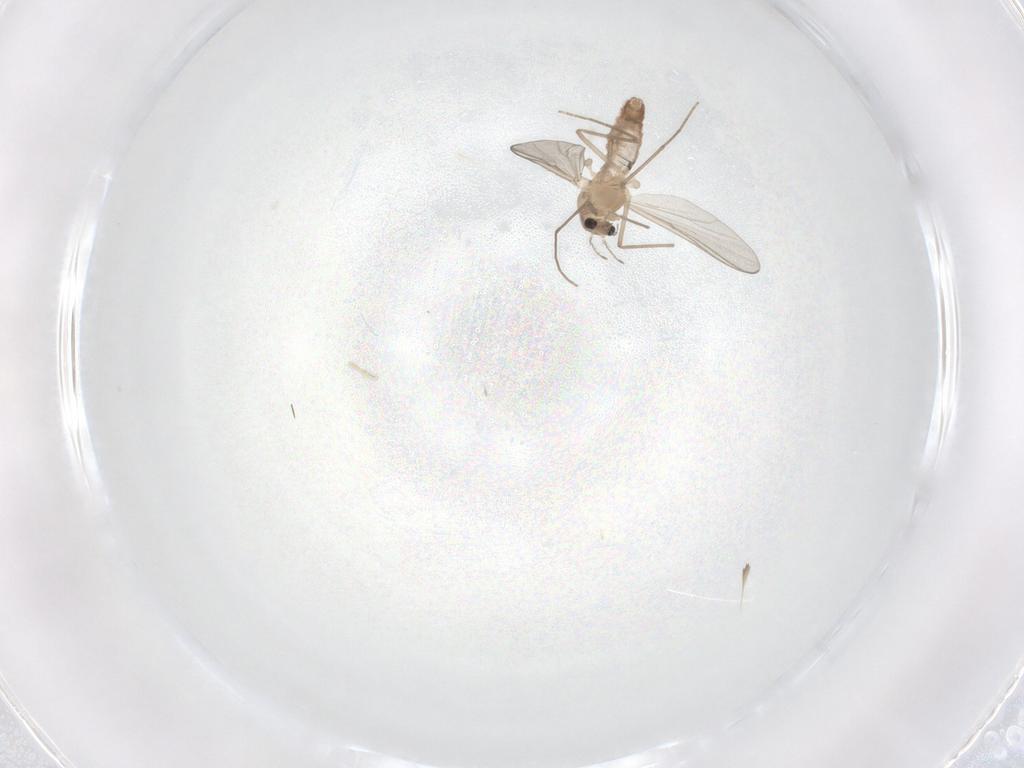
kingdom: Animalia
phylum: Arthropoda
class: Insecta
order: Diptera
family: Chironomidae
